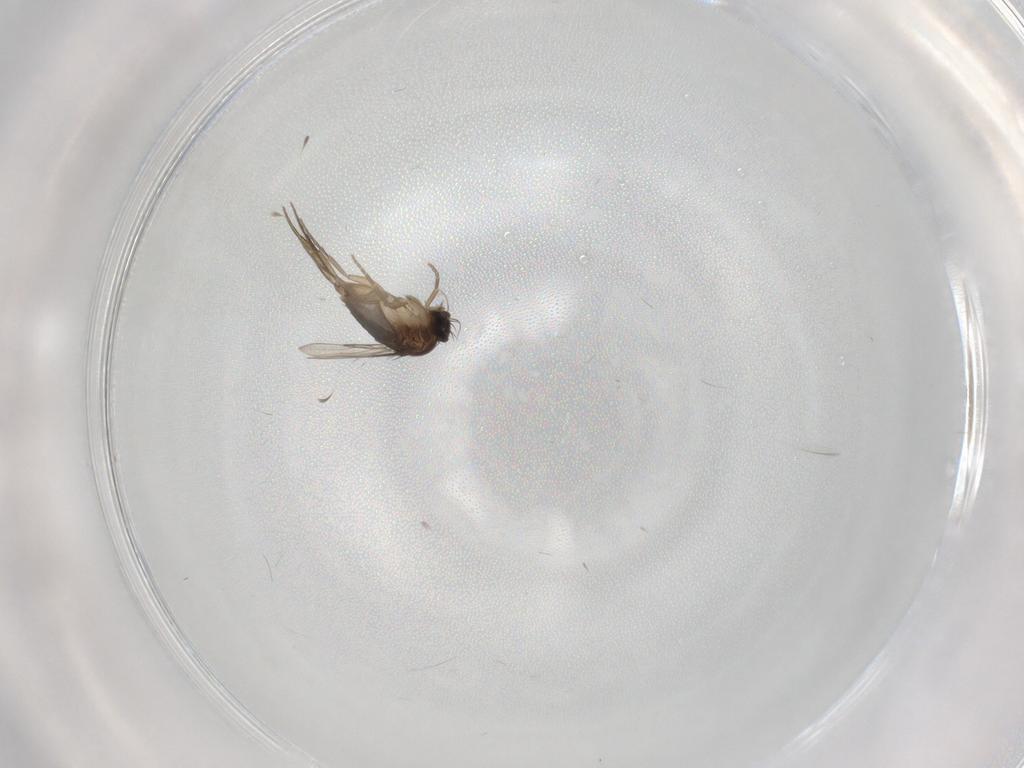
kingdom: Animalia
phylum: Arthropoda
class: Insecta
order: Diptera
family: Phoridae
